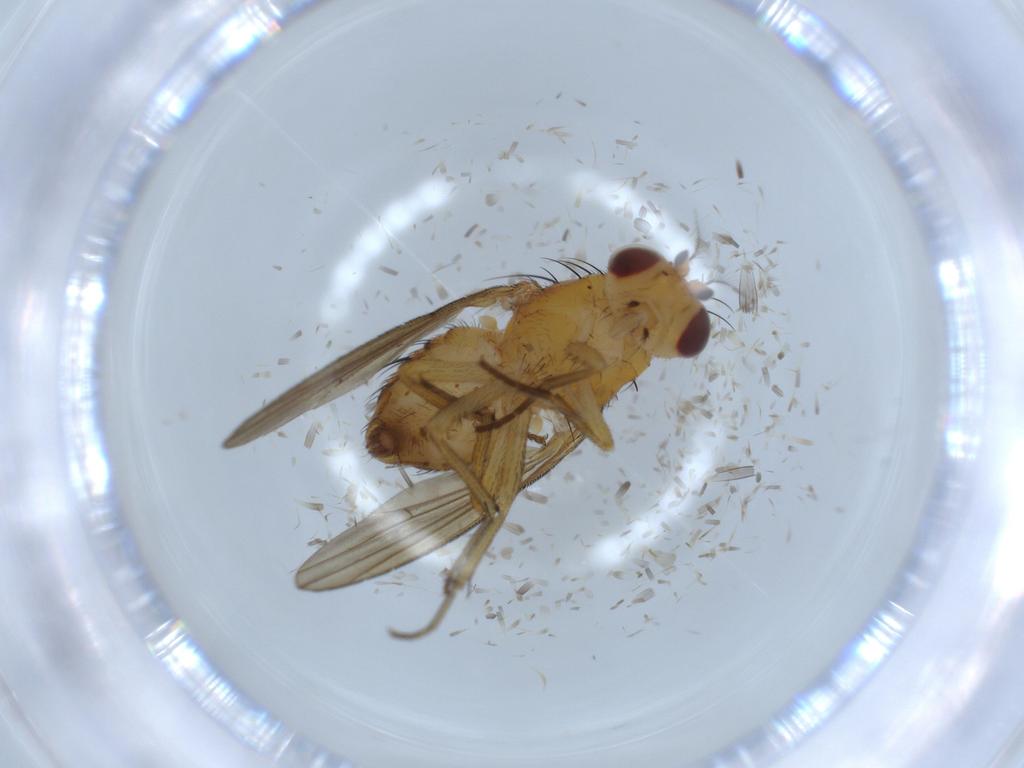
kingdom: Animalia
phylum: Arthropoda
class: Insecta
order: Diptera
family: Lauxaniidae
